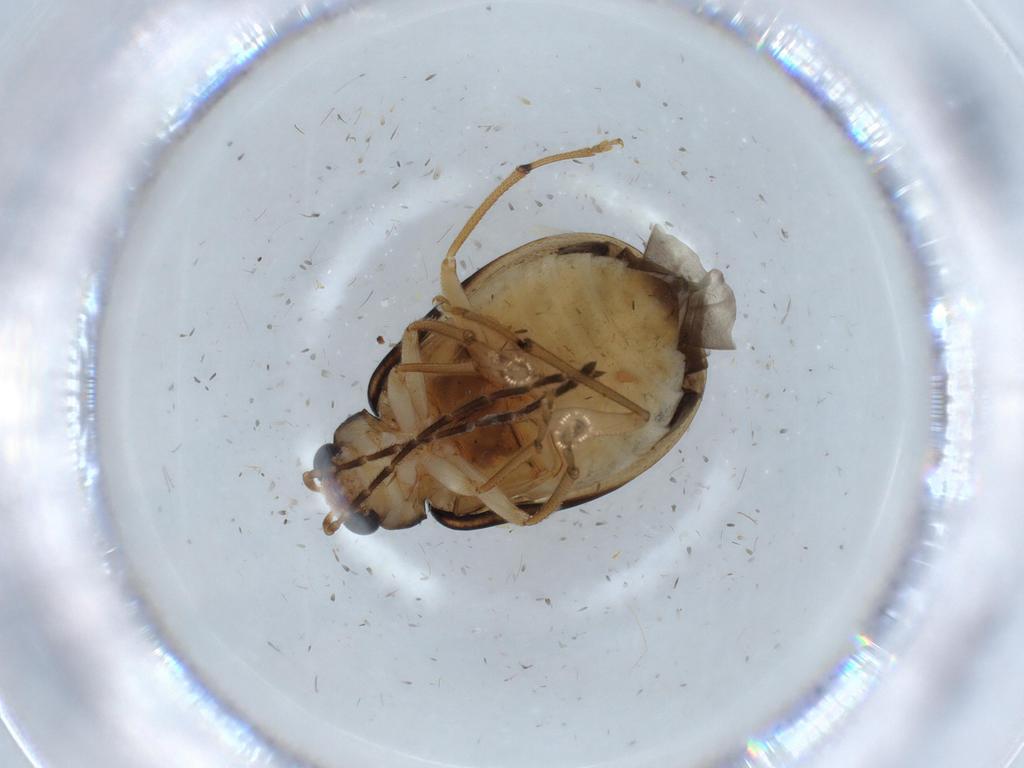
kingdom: Animalia
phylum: Arthropoda
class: Insecta
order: Coleoptera
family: Chrysomelidae
